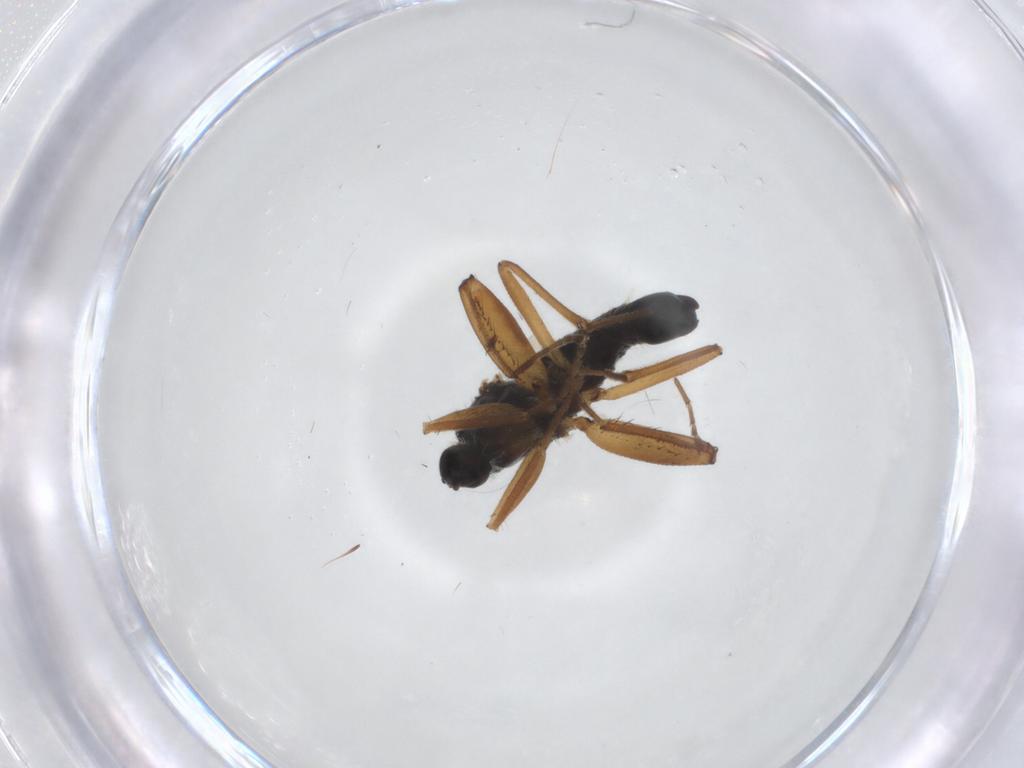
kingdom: Animalia
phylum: Arthropoda
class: Insecta
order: Diptera
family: Hybotidae
